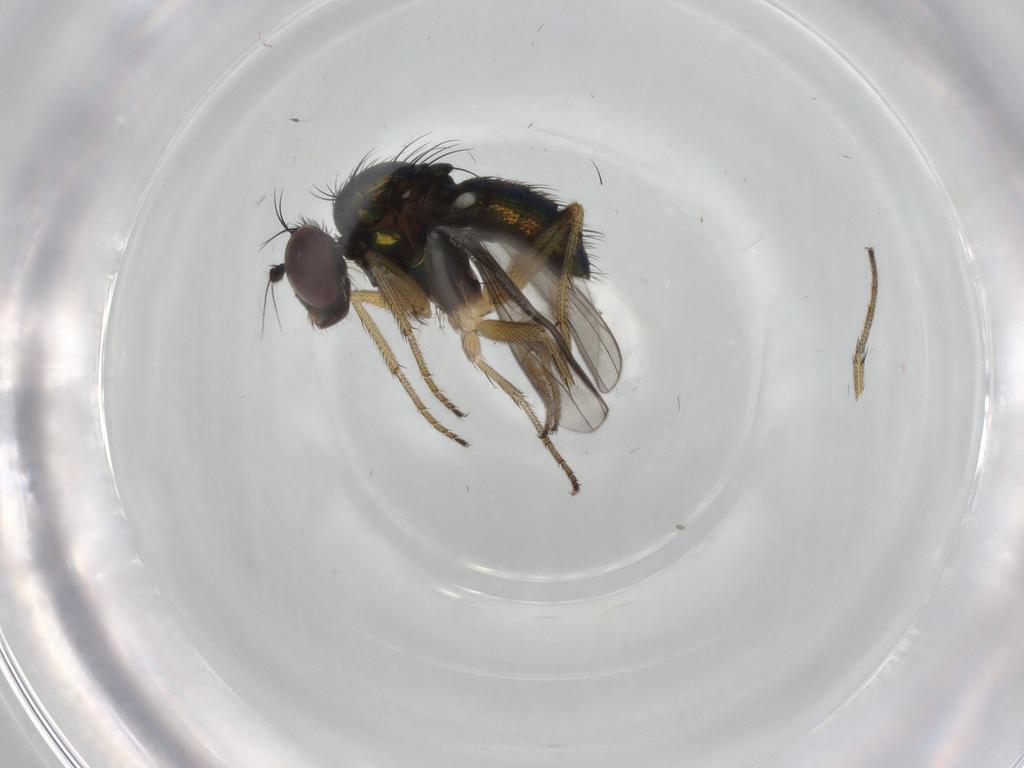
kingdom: Animalia
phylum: Arthropoda
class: Insecta
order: Diptera
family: Dolichopodidae
